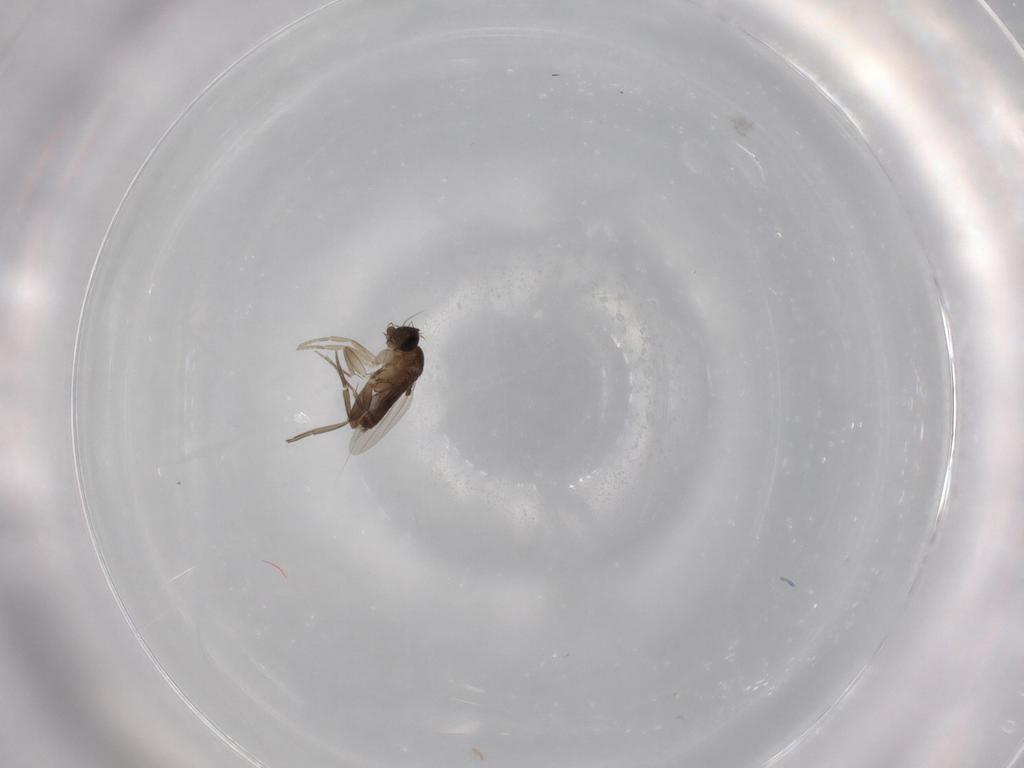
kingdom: Animalia
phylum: Arthropoda
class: Insecta
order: Diptera
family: Phoridae
